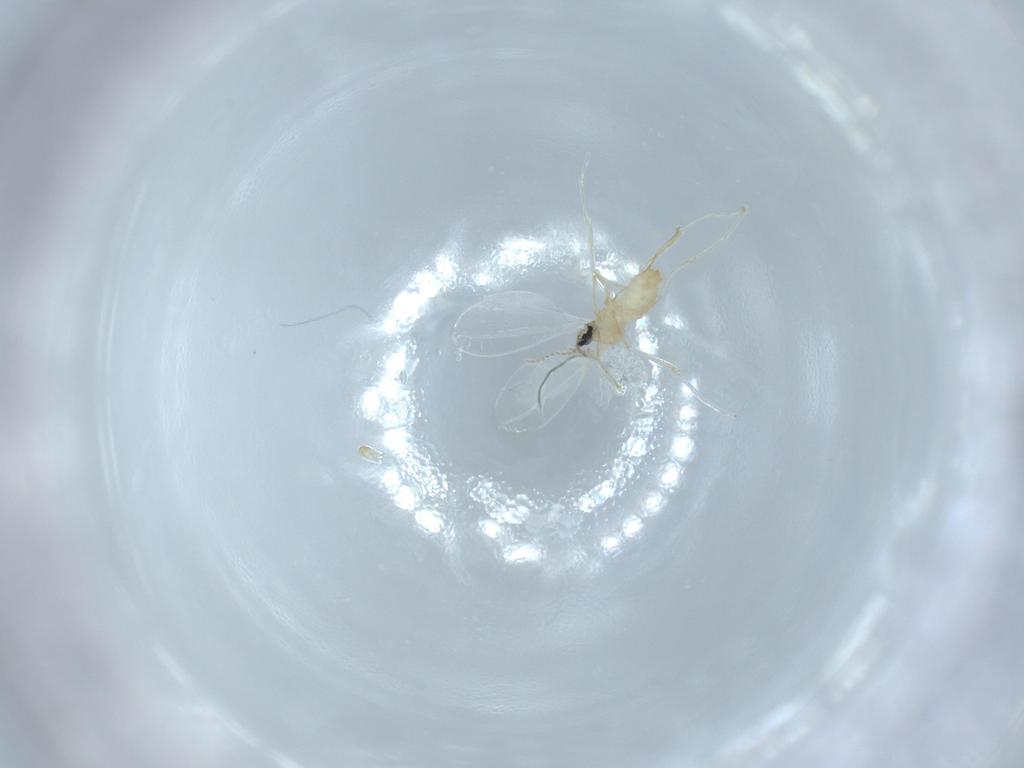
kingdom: Animalia
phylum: Arthropoda
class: Insecta
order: Diptera
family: Cecidomyiidae
